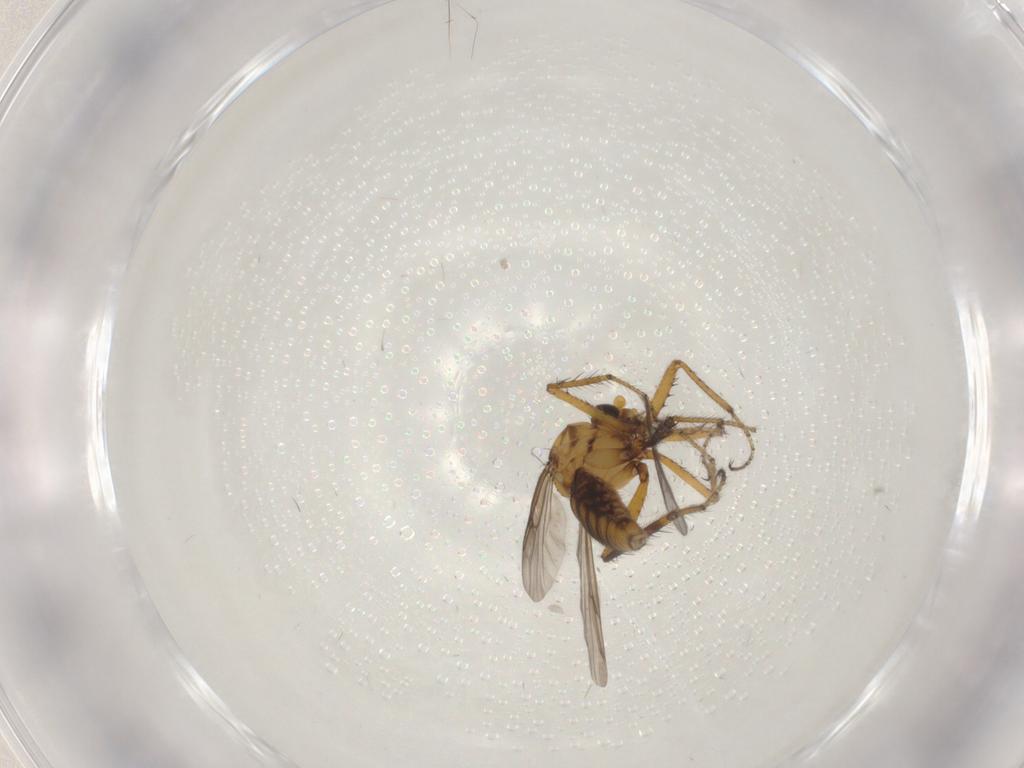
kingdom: Animalia
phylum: Arthropoda
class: Insecta
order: Diptera
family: Sciaridae
